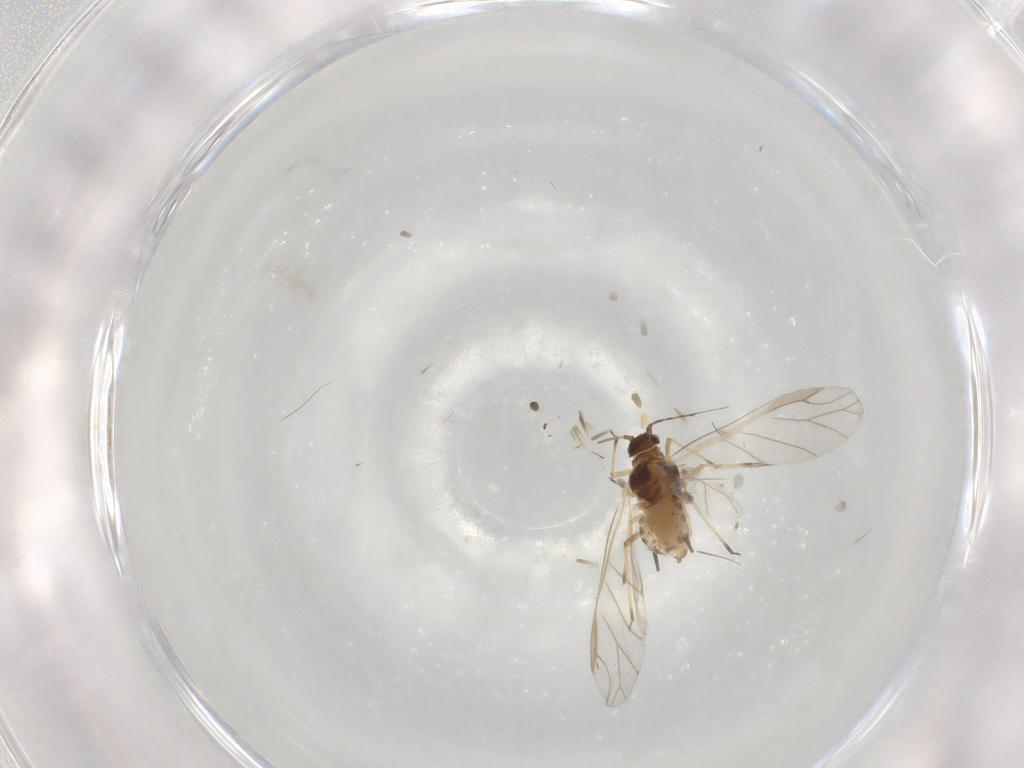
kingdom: Animalia
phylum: Arthropoda
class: Insecta
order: Hemiptera
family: Aphididae
